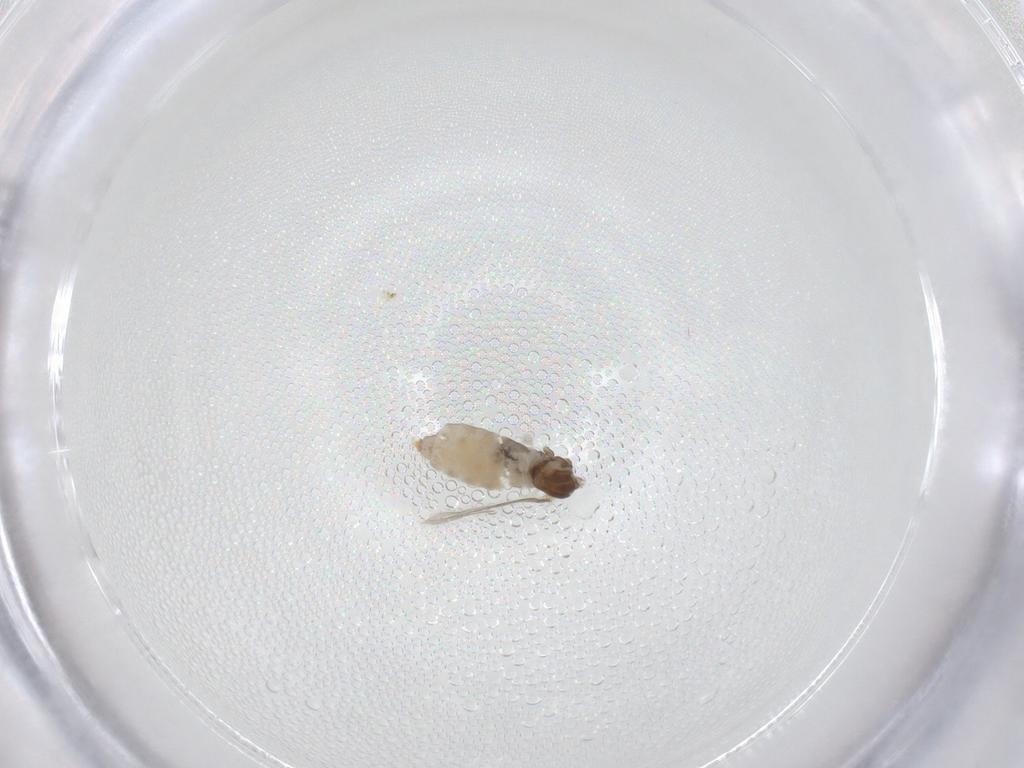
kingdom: Animalia
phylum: Arthropoda
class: Insecta
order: Diptera
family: Cecidomyiidae
